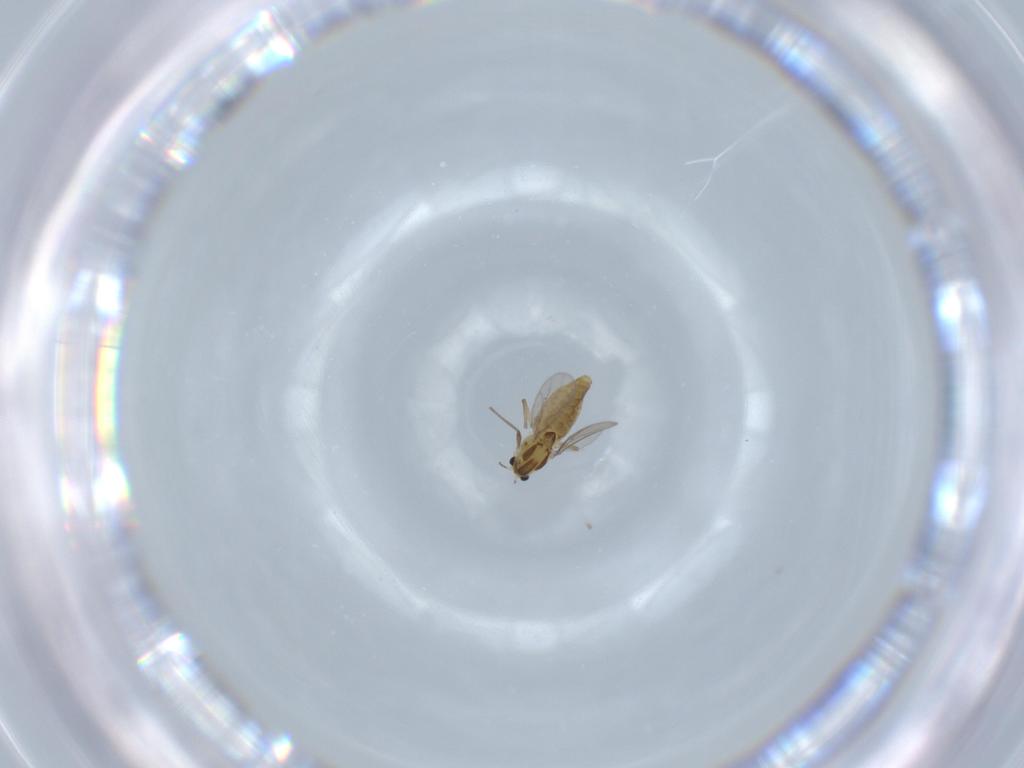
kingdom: Animalia
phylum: Arthropoda
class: Insecta
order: Diptera
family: Chironomidae
